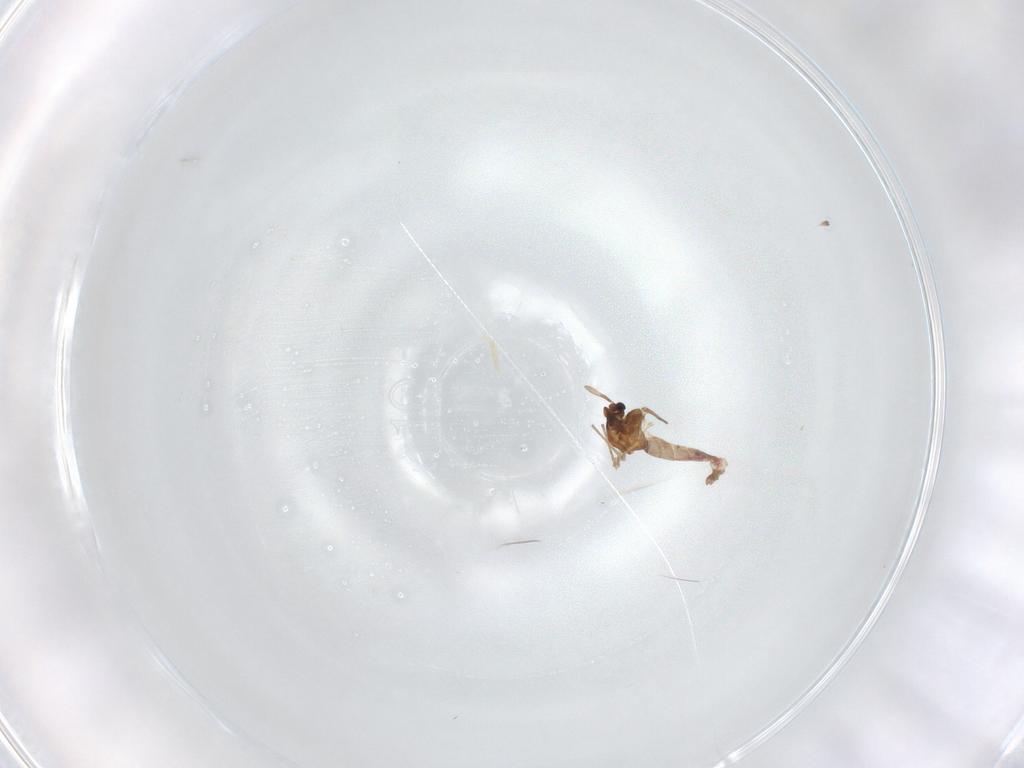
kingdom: Animalia
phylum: Arthropoda
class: Insecta
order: Diptera
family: Chironomidae
